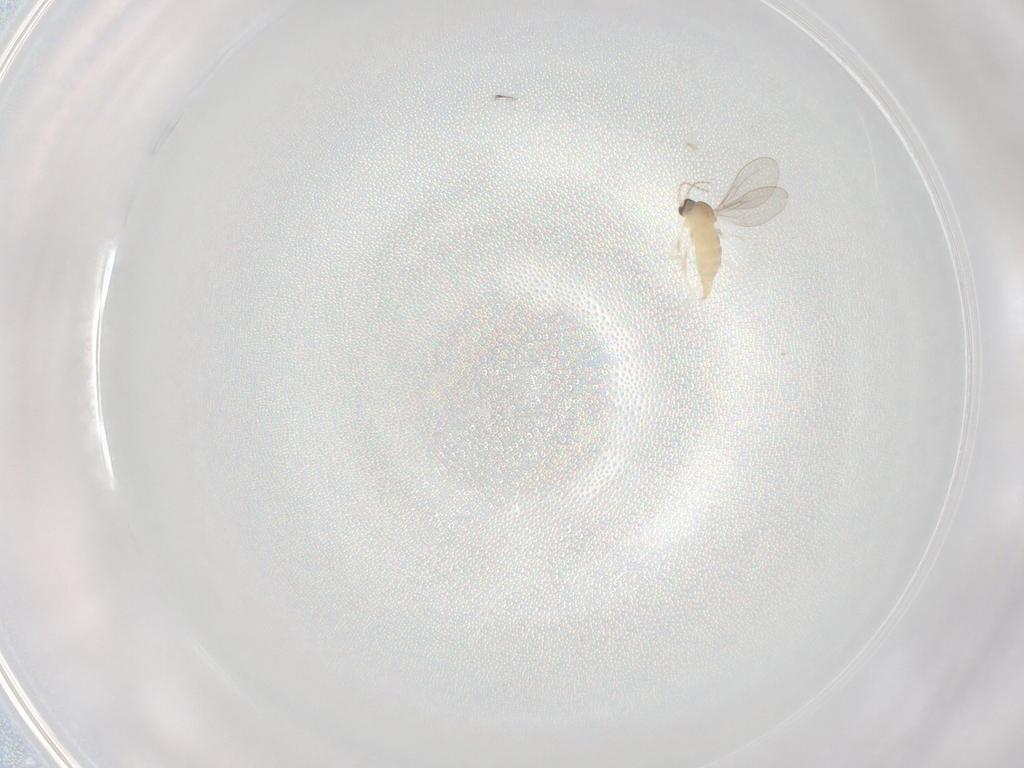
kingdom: Animalia
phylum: Arthropoda
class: Insecta
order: Diptera
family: Cecidomyiidae
